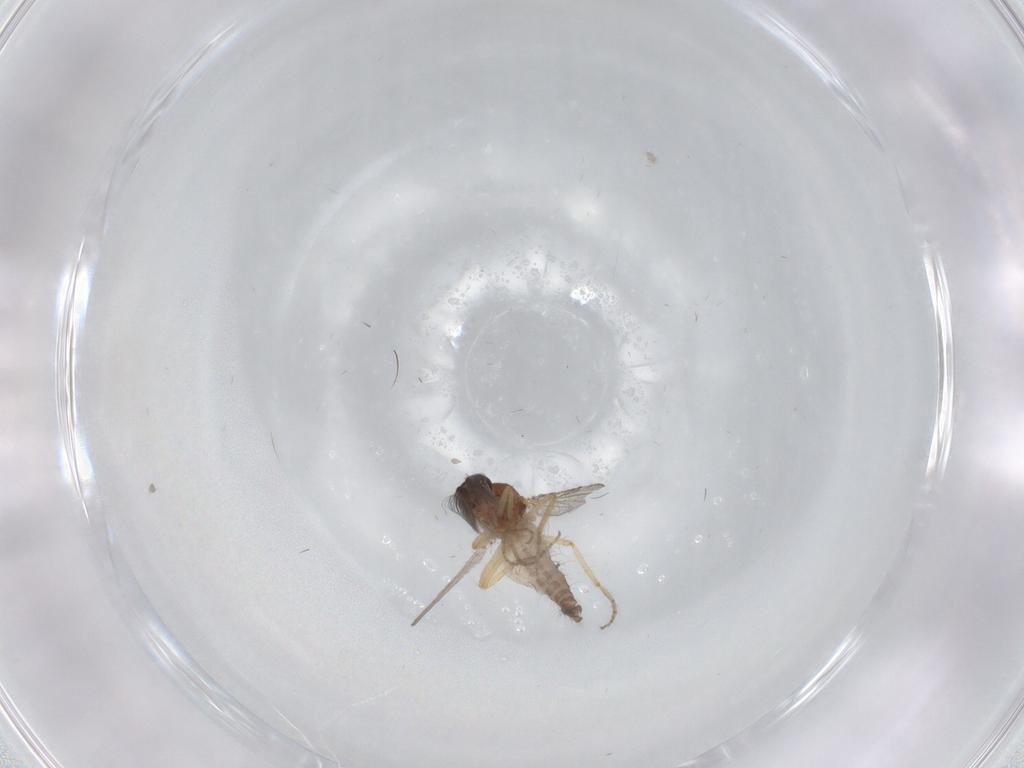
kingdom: Animalia
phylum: Arthropoda
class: Insecta
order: Diptera
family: Ceratopogonidae
